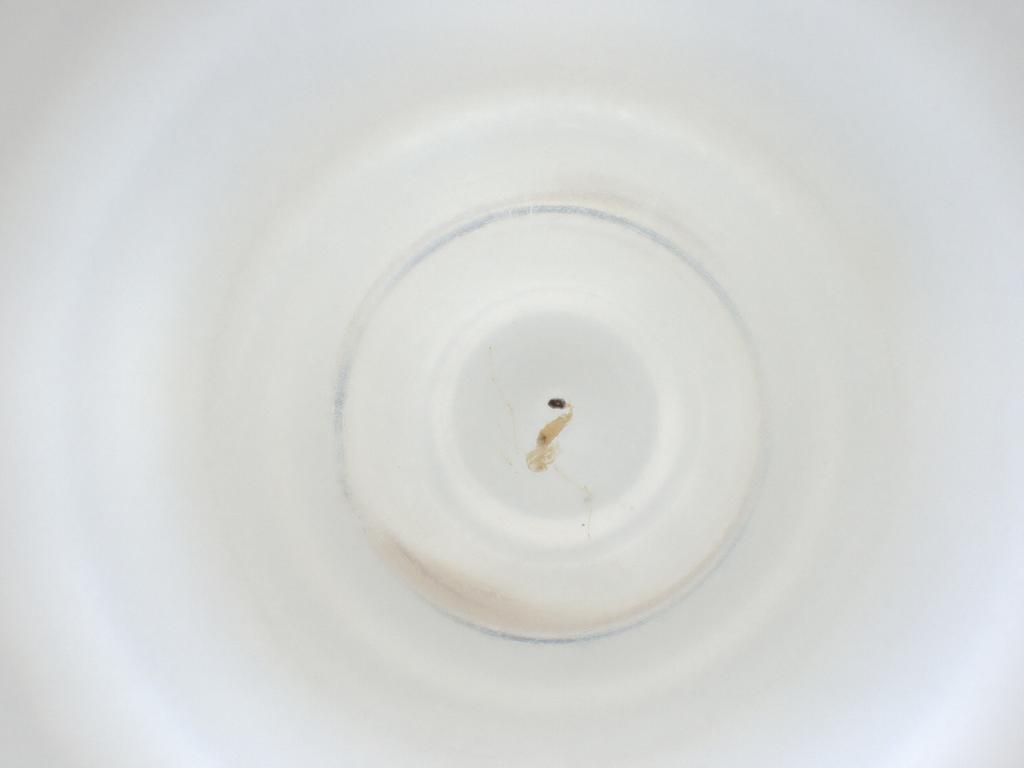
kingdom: Animalia
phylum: Arthropoda
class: Insecta
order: Diptera
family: Cecidomyiidae
